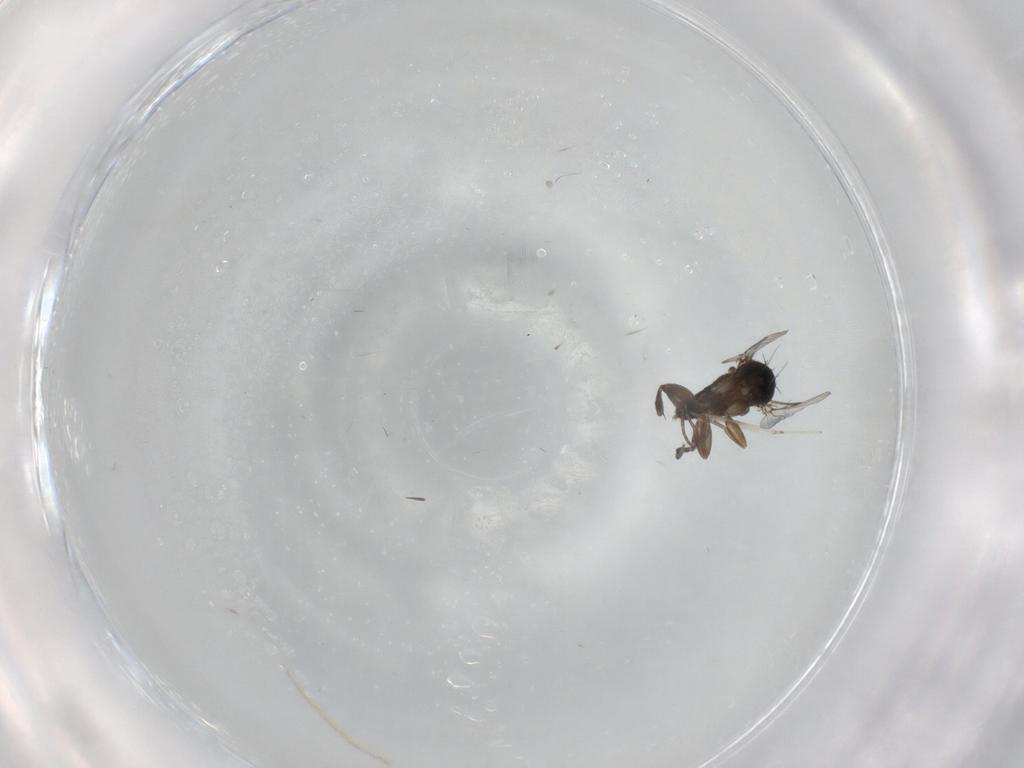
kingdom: Animalia
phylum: Arthropoda
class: Insecta
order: Diptera
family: Phoridae
